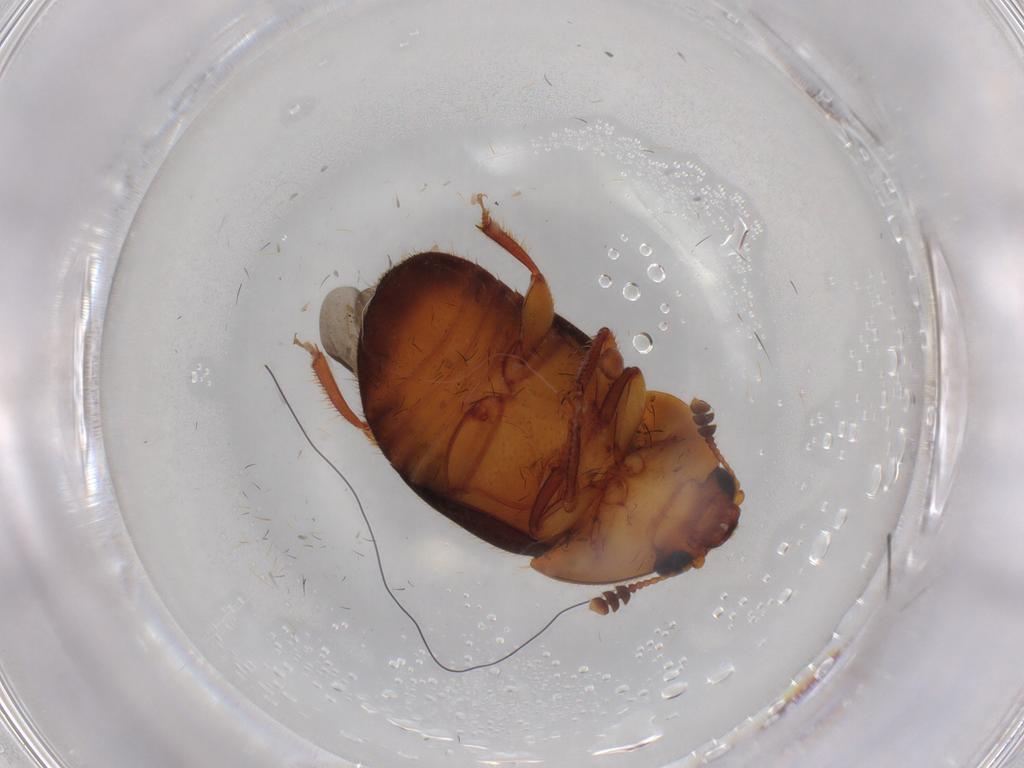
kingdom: Animalia
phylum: Arthropoda
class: Insecta
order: Coleoptera
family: Nitidulidae
